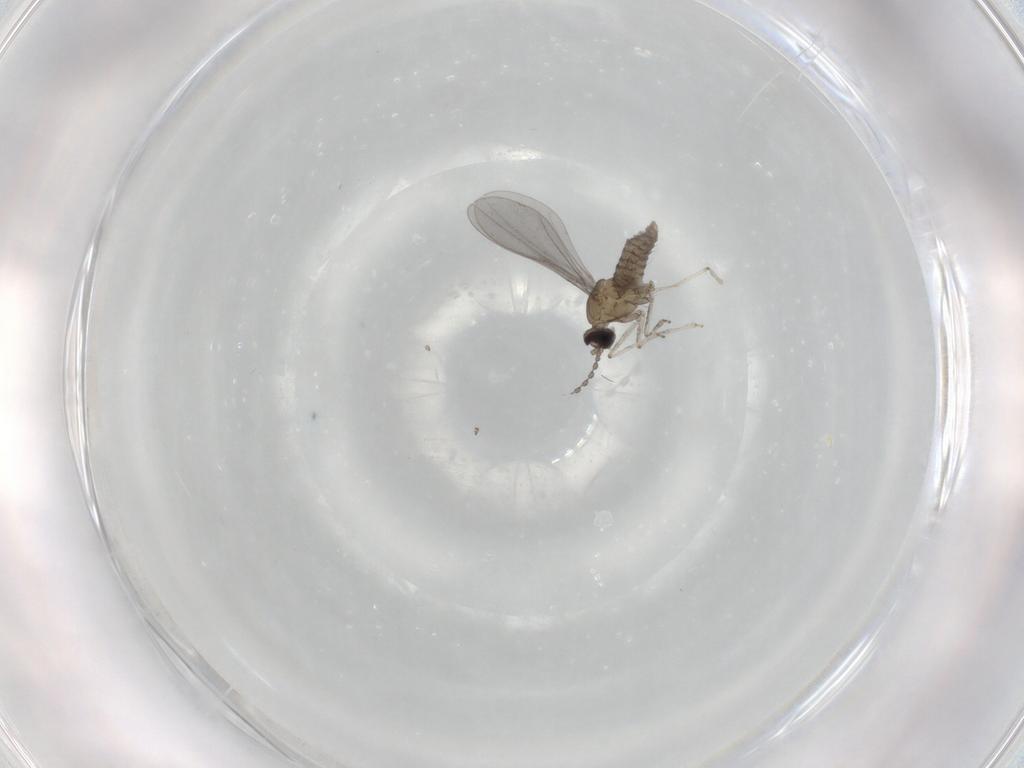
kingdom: Animalia
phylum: Arthropoda
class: Insecta
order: Diptera
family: Cecidomyiidae
